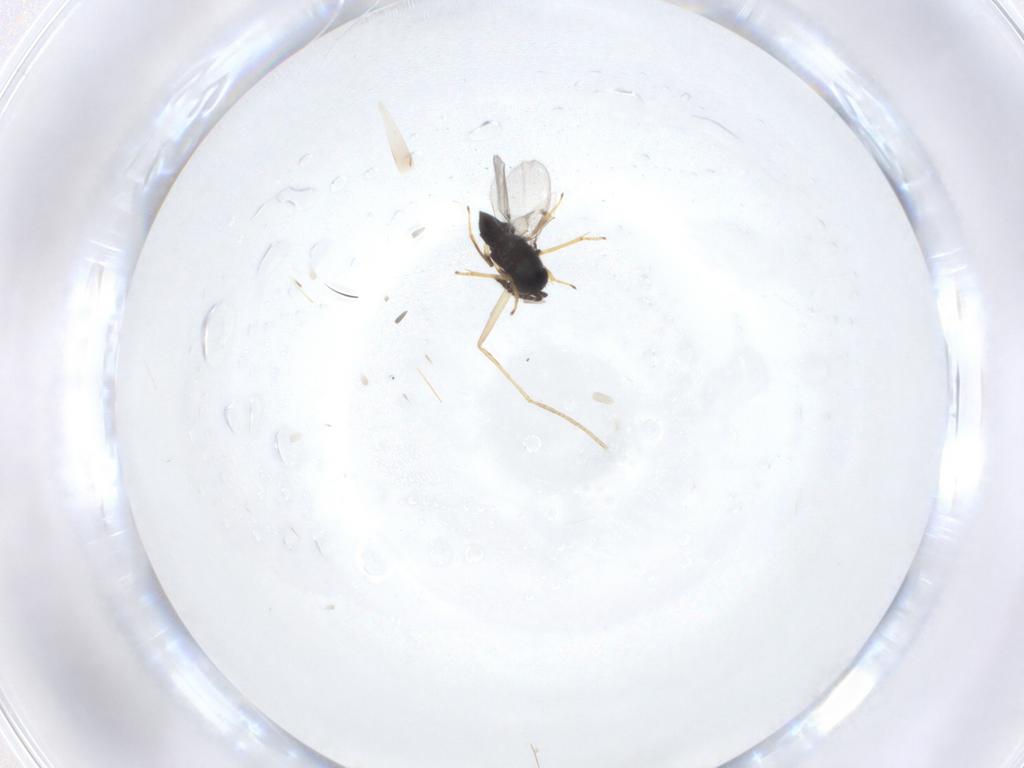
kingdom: Animalia
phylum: Arthropoda
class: Insecta
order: Diptera
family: Psychodidae
